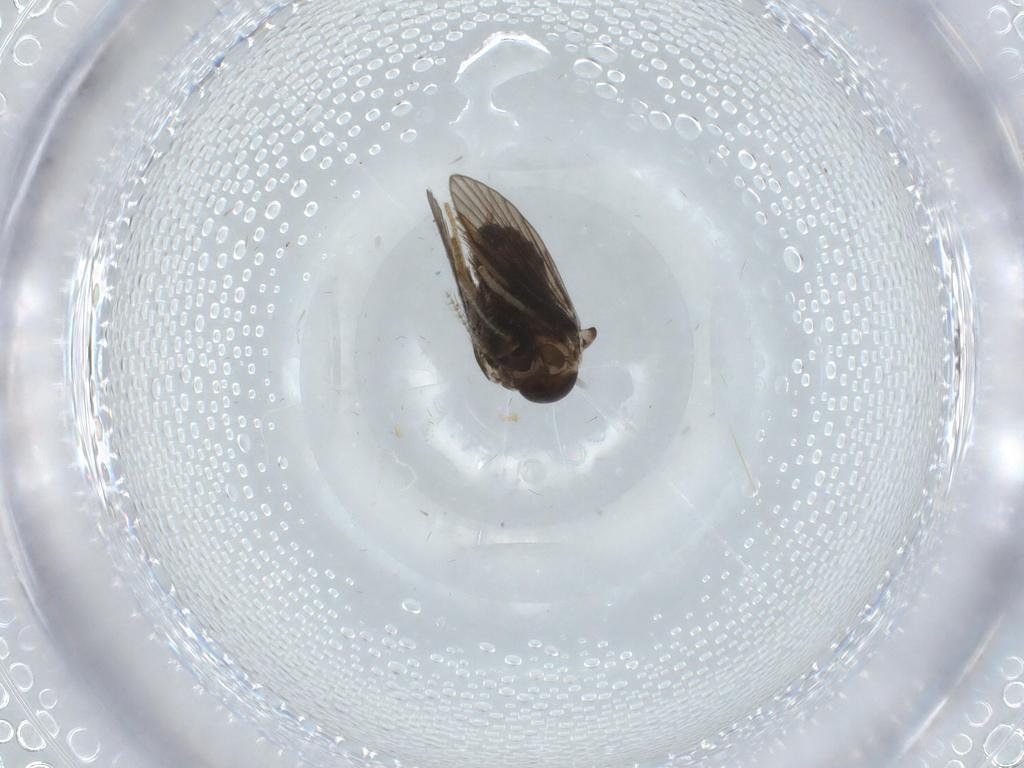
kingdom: Animalia
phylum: Arthropoda
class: Insecta
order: Diptera
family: Psychodidae
